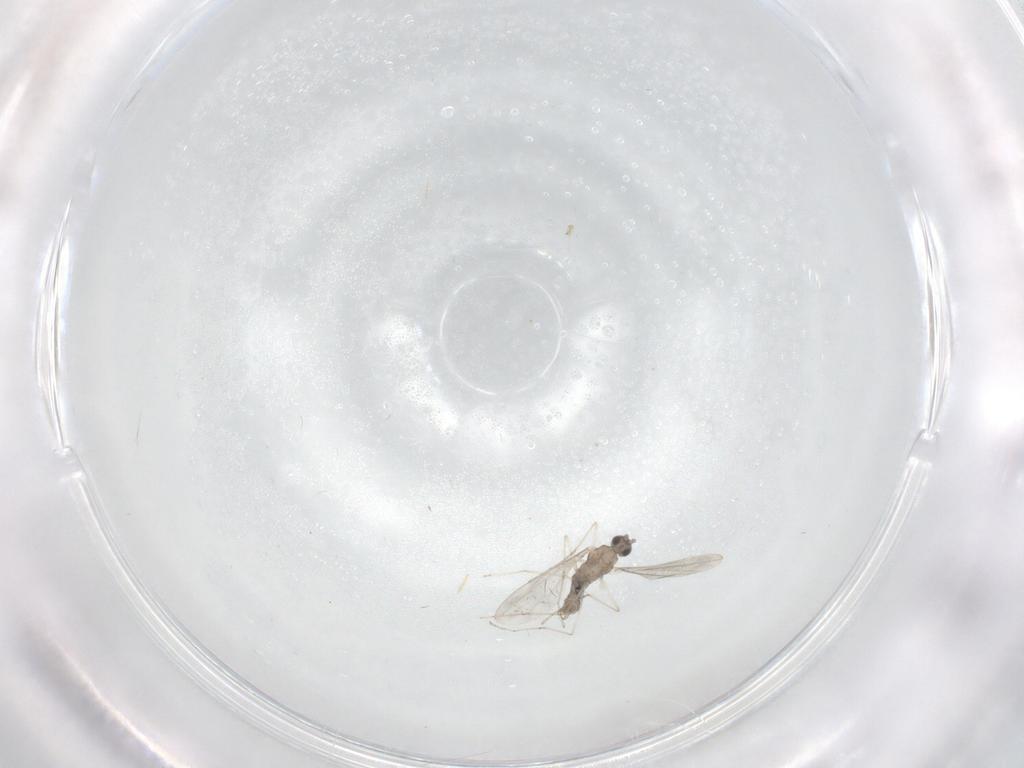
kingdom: Animalia
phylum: Arthropoda
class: Insecta
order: Diptera
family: Cecidomyiidae
